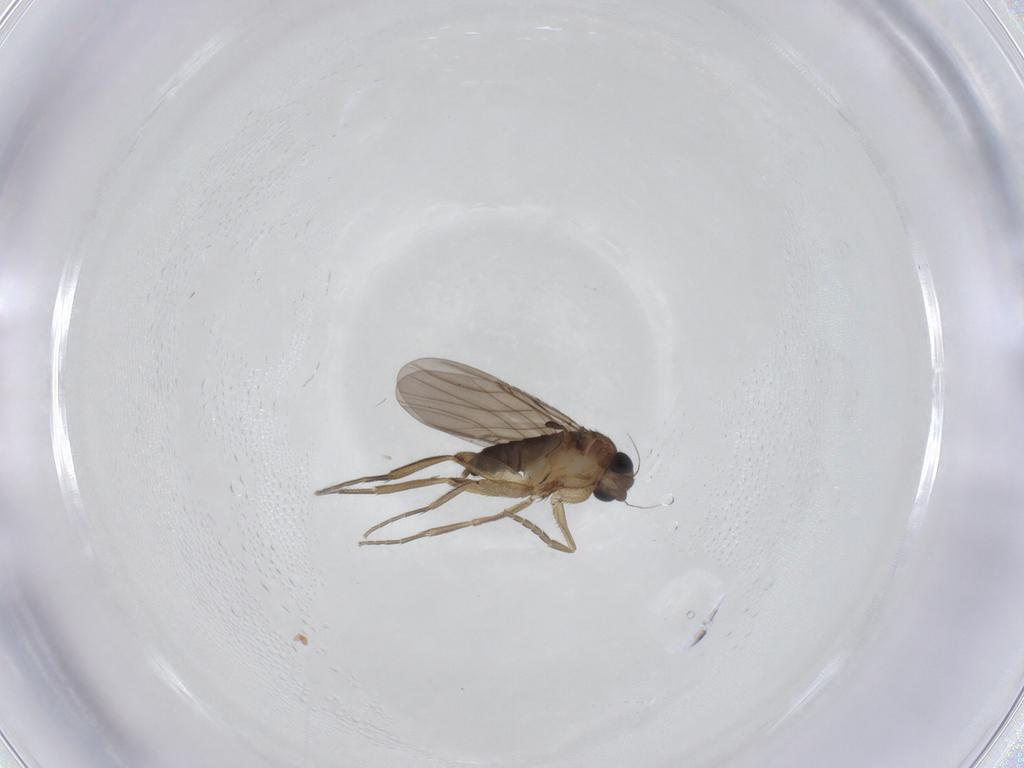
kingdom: Animalia
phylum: Arthropoda
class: Insecta
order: Diptera
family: Phoridae
